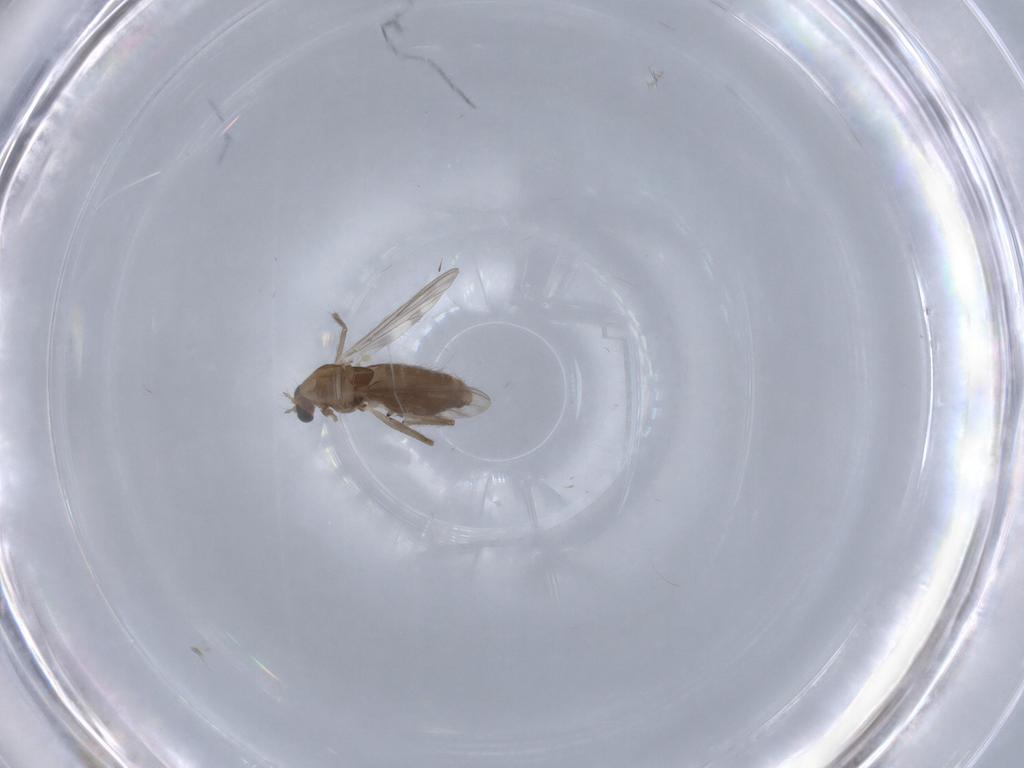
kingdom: Animalia
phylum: Arthropoda
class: Insecta
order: Diptera
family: Chironomidae
